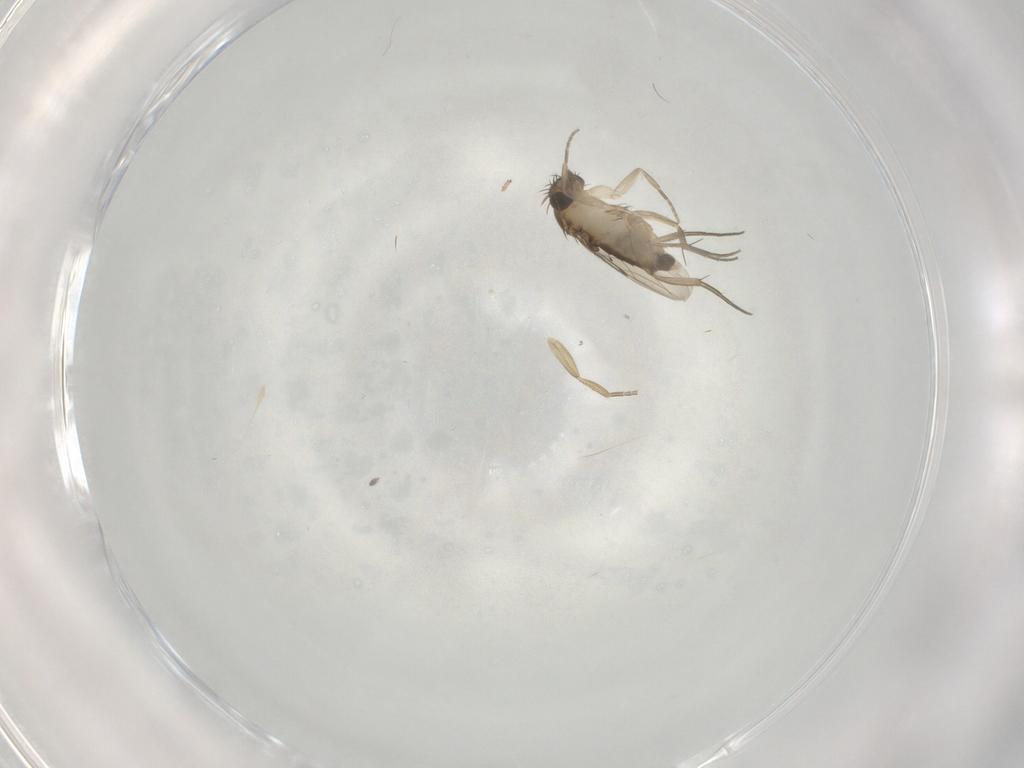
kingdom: Animalia
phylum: Arthropoda
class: Insecta
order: Diptera
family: Phoridae
